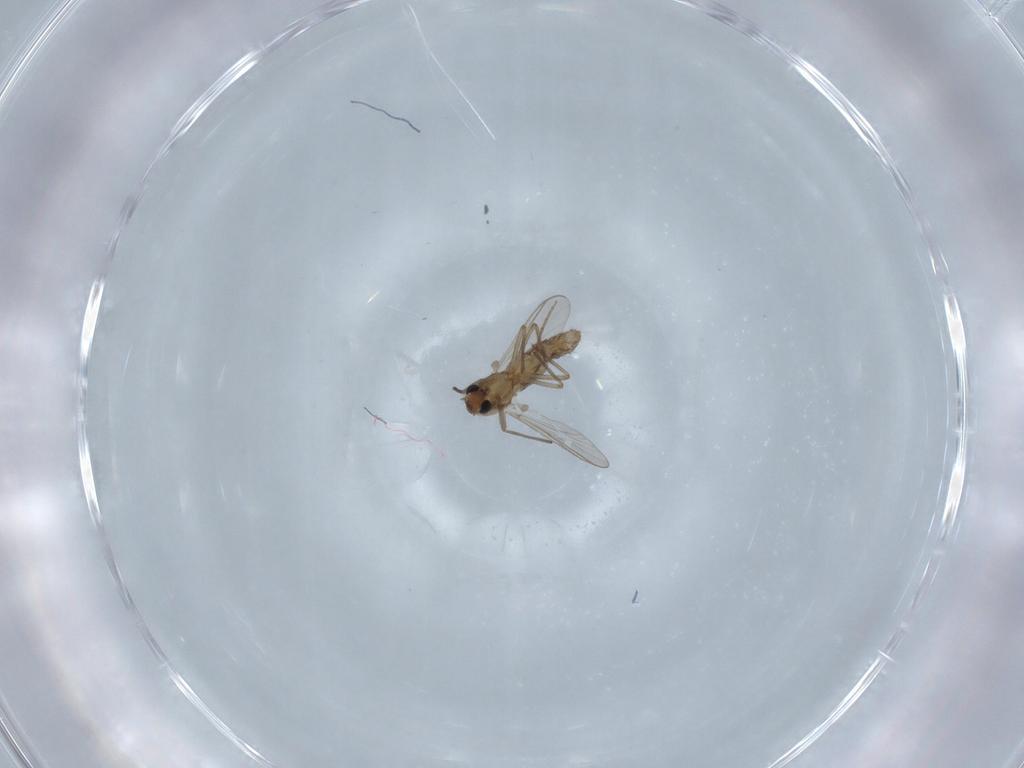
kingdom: Animalia
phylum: Arthropoda
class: Insecta
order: Diptera
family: Chironomidae
